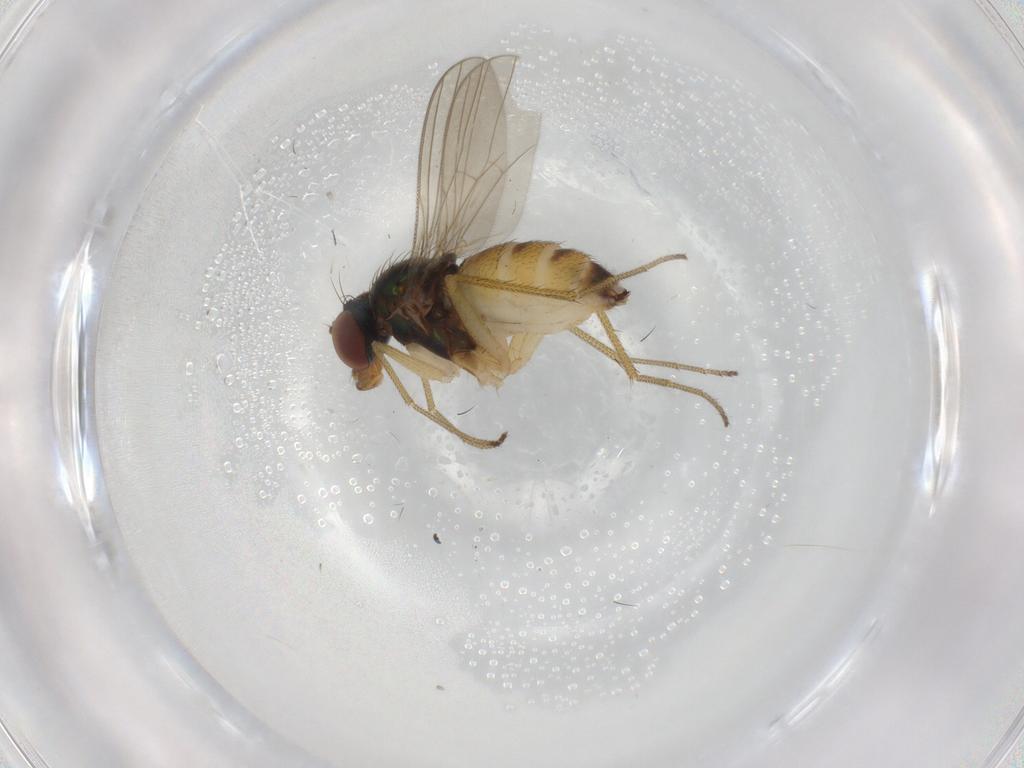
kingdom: Animalia
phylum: Arthropoda
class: Insecta
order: Diptera
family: Dolichopodidae
